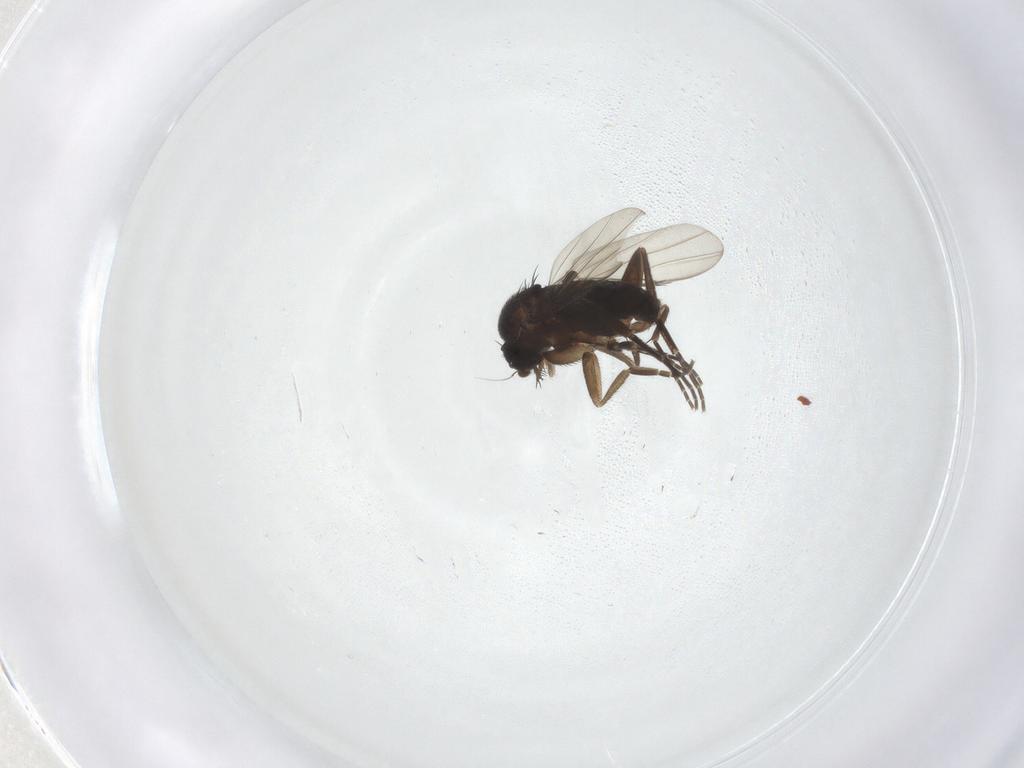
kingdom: Animalia
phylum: Arthropoda
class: Insecta
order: Diptera
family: Phoridae
